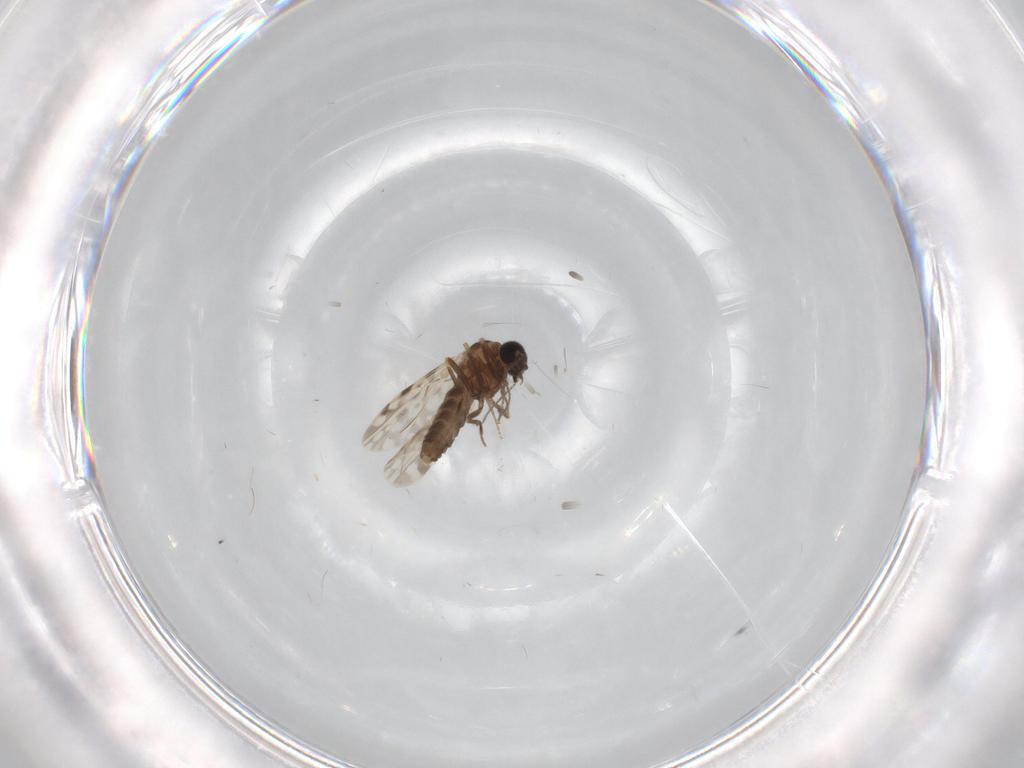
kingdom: Animalia
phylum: Arthropoda
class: Insecta
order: Diptera
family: Ceratopogonidae
